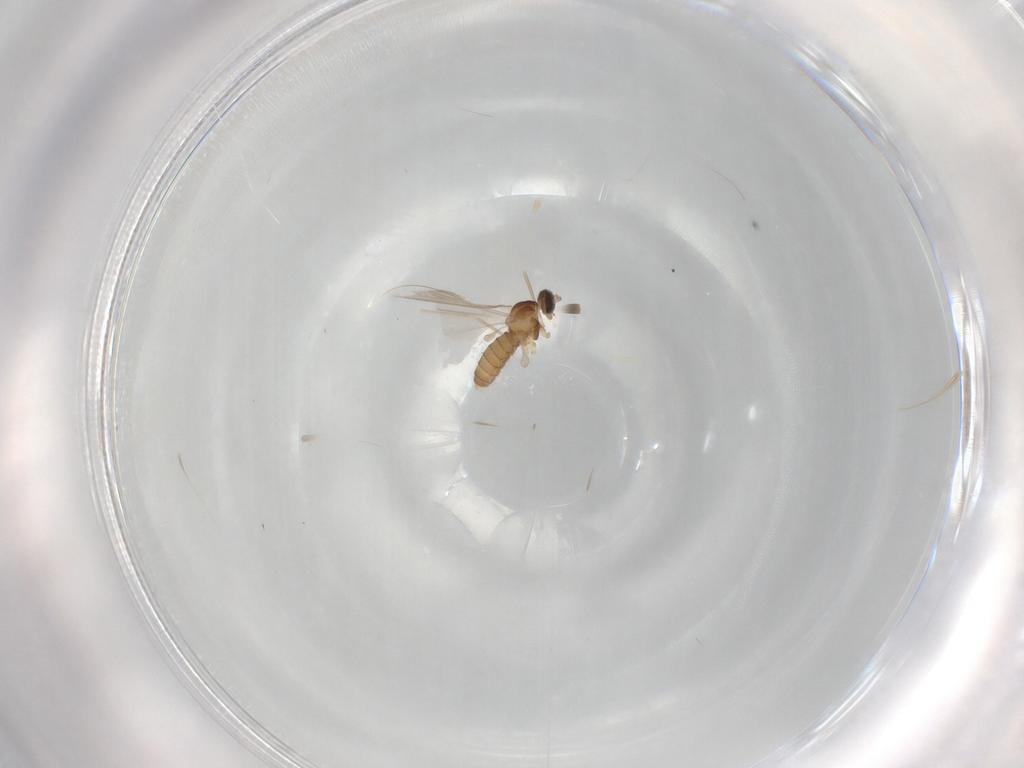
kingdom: Animalia
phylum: Arthropoda
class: Insecta
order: Diptera
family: Cecidomyiidae
